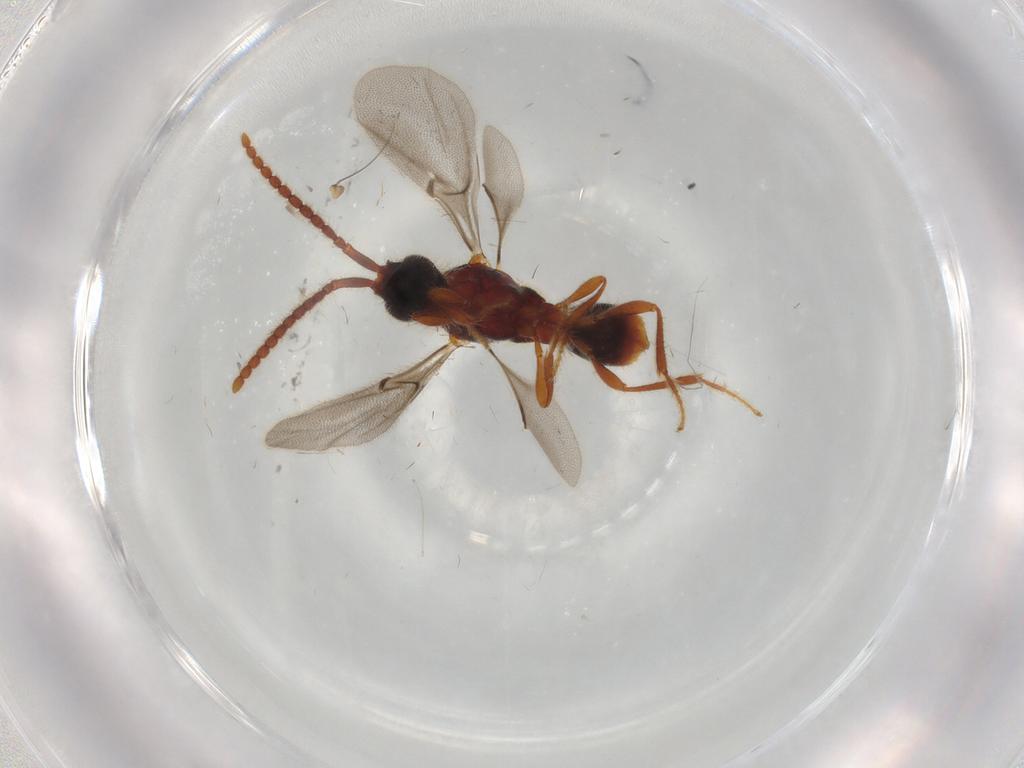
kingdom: Animalia
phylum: Arthropoda
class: Insecta
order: Hymenoptera
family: Diapriidae
